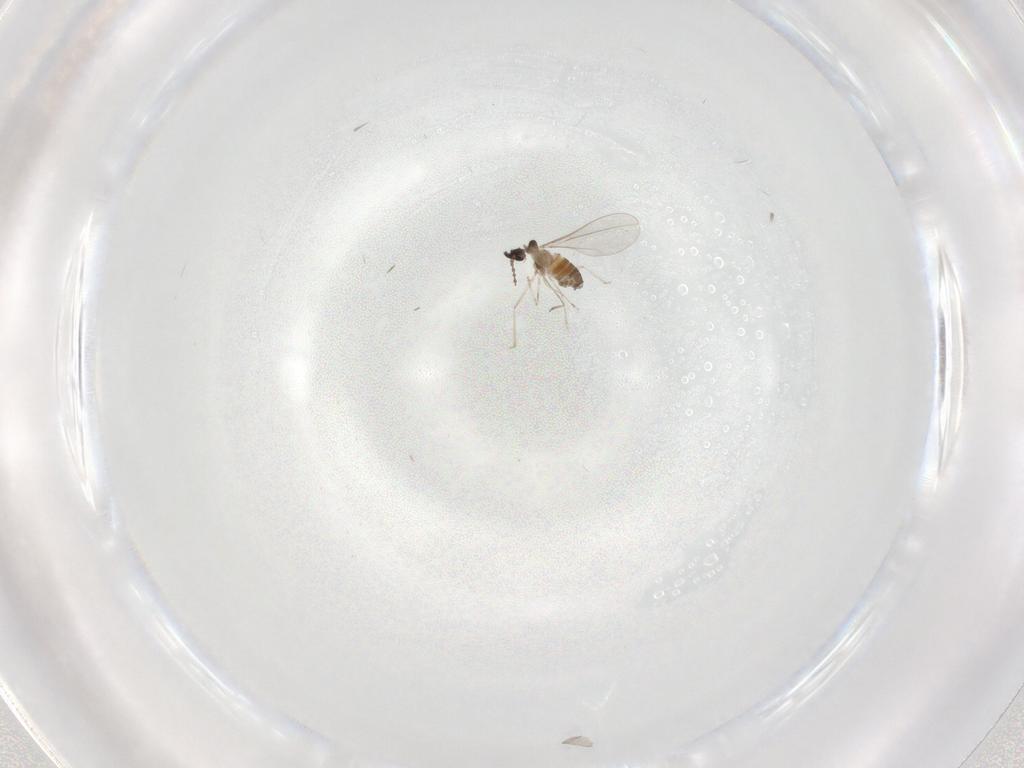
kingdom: Animalia
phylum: Arthropoda
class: Insecta
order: Diptera
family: Cecidomyiidae
